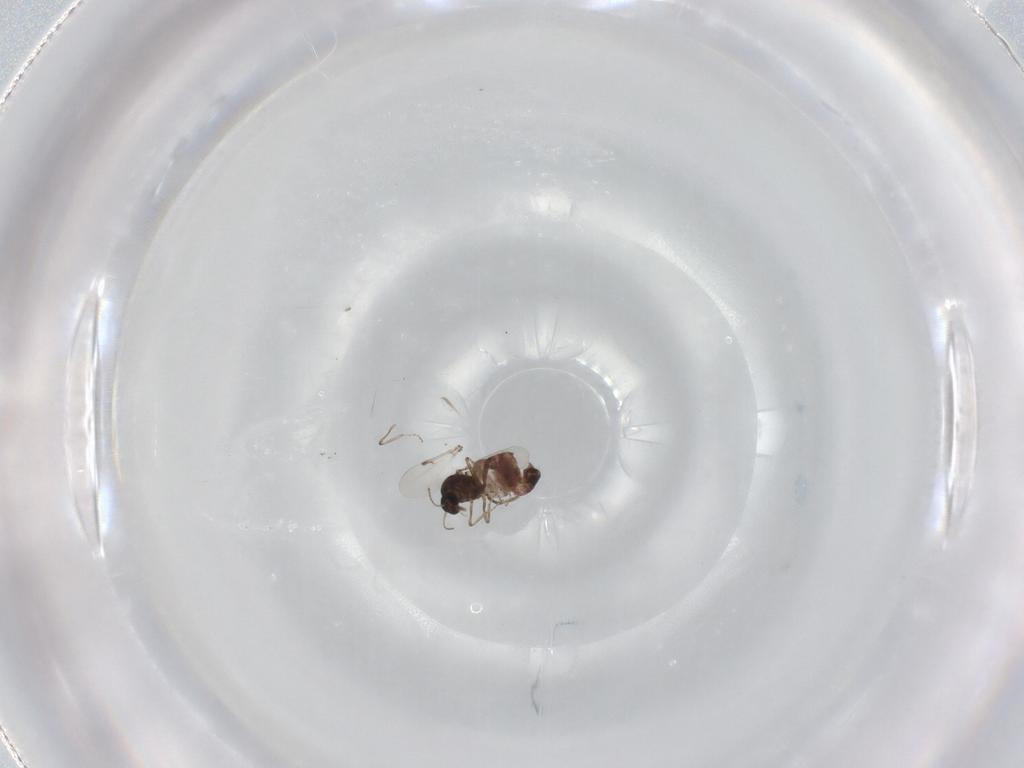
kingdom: Animalia
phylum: Arthropoda
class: Insecta
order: Diptera
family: Ceratopogonidae
